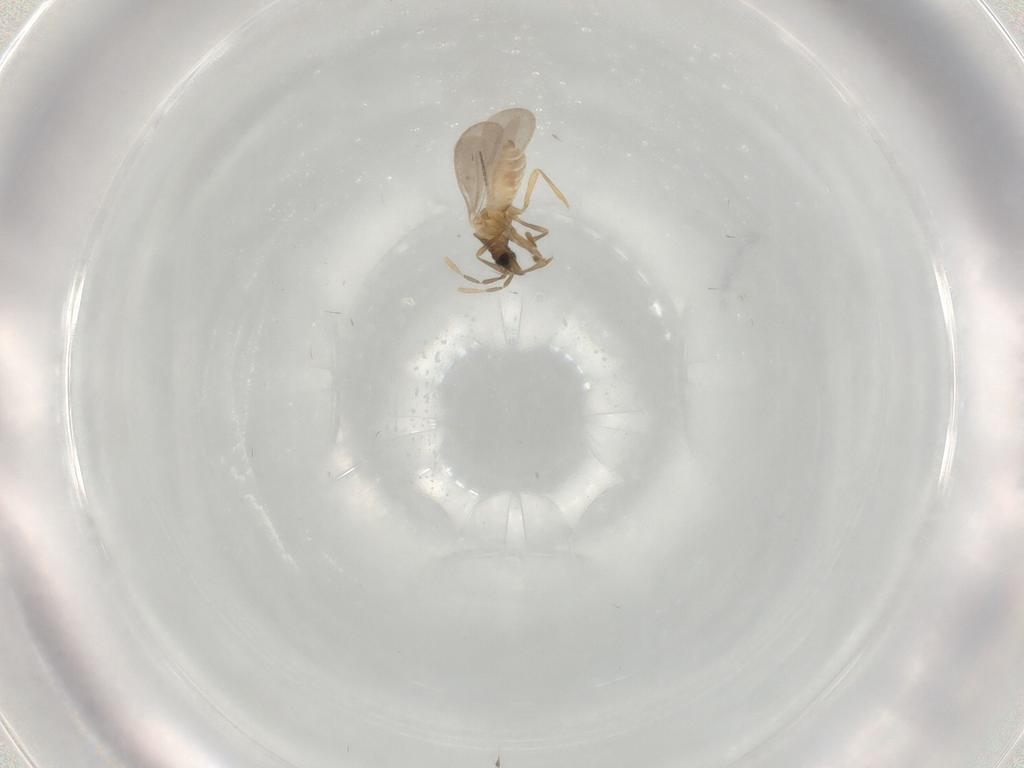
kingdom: Animalia
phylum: Arthropoda
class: Insecta
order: Hemiptera
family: Enicocephalidae
